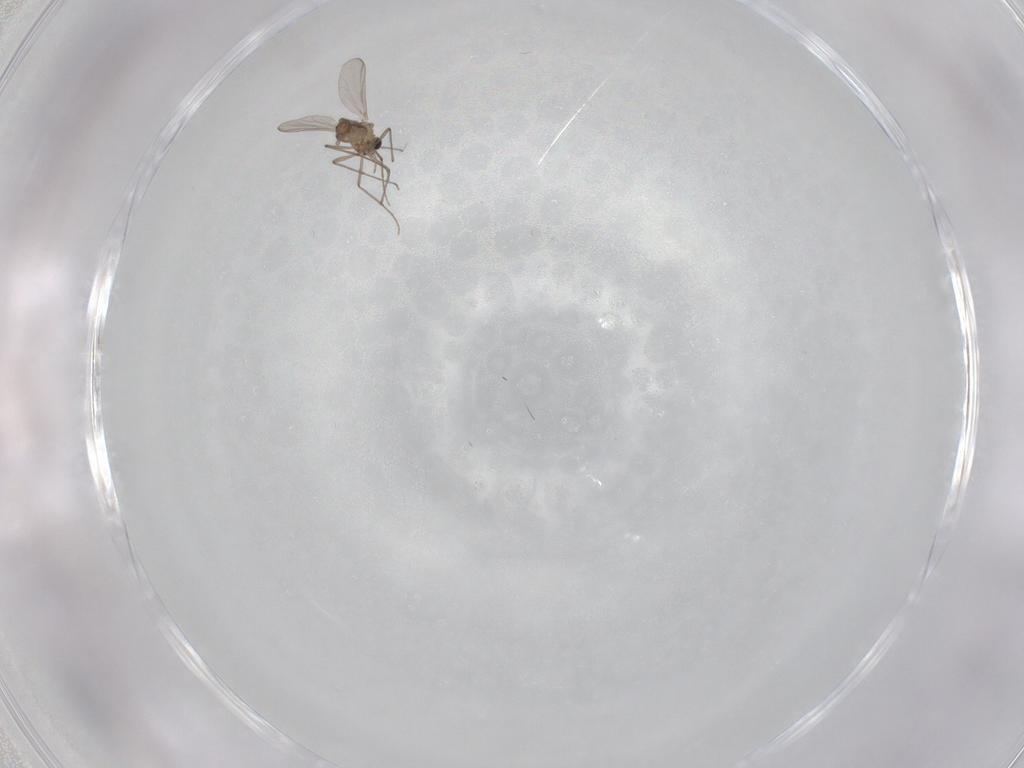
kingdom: Animalia
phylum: Arthropoda
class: Insecta
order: Diptera
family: Chironomidae
